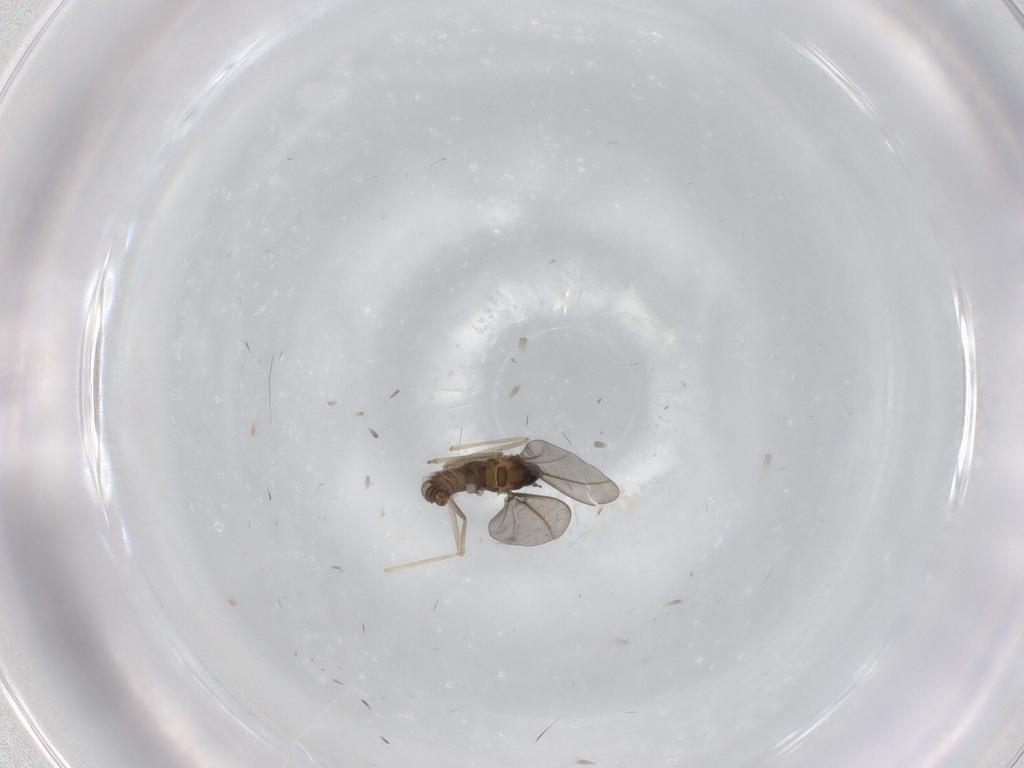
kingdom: Animalia
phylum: Arthropoda
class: Insecta
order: Diptera
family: Cecidomyiidae
